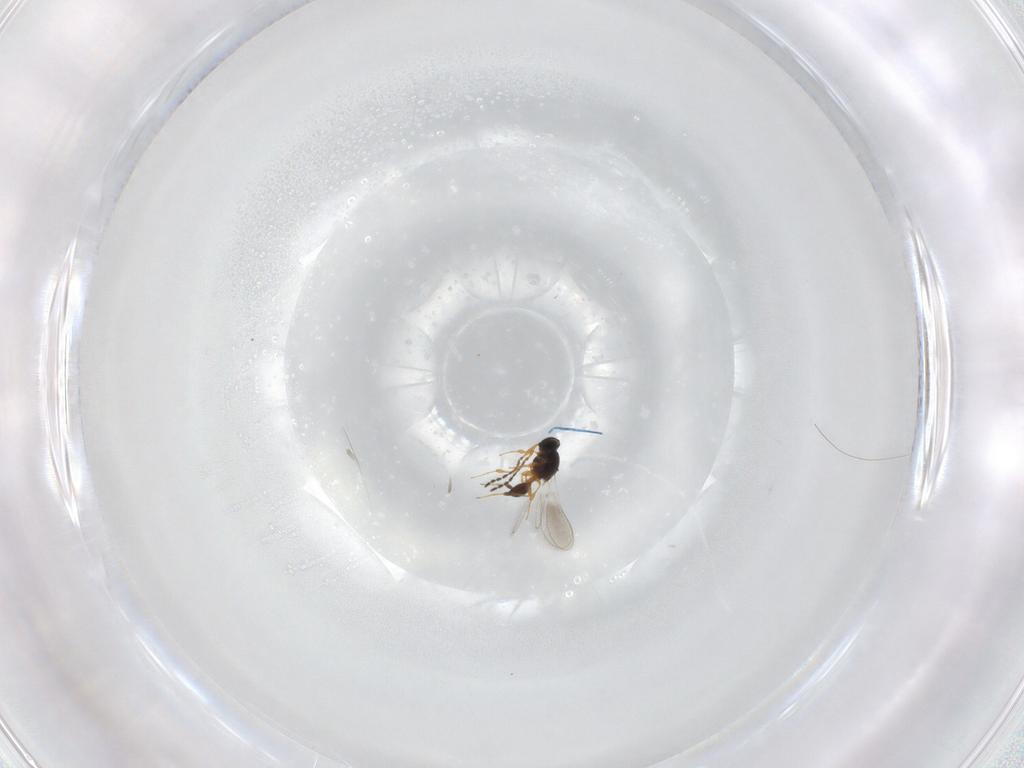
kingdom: Animalia
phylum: Arthropoda
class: Insecta
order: Hymenoptera
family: Platygastridae
